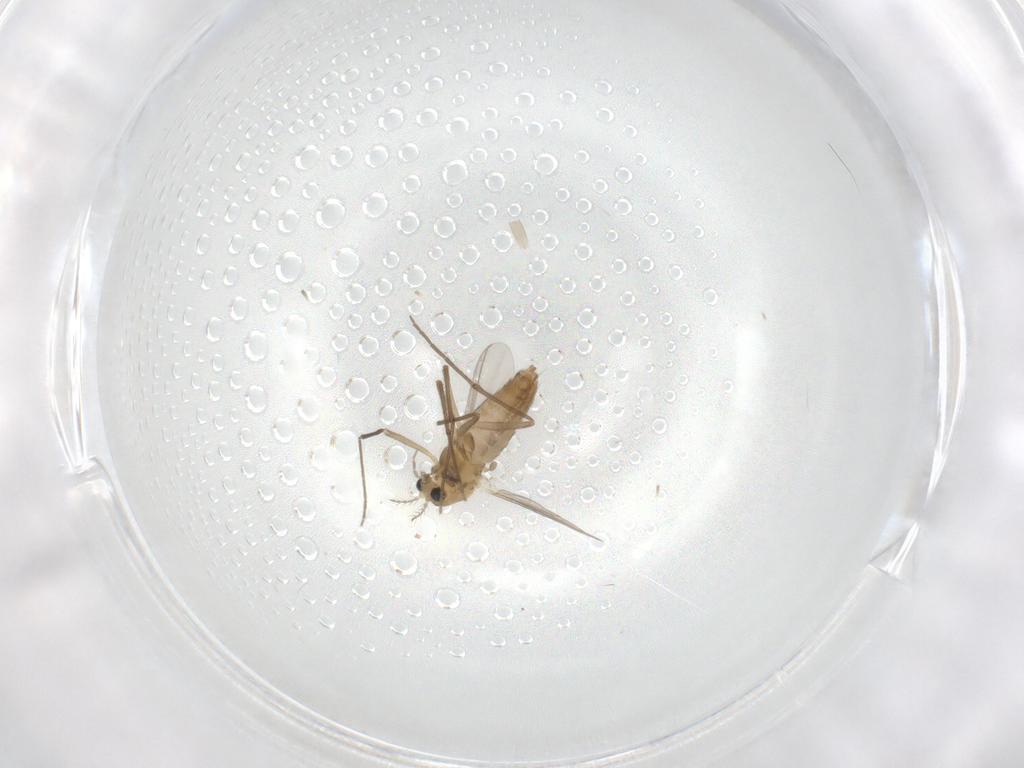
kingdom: Animalia
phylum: Arthropoda
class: Insecta
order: Diptera
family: Chironomidae
